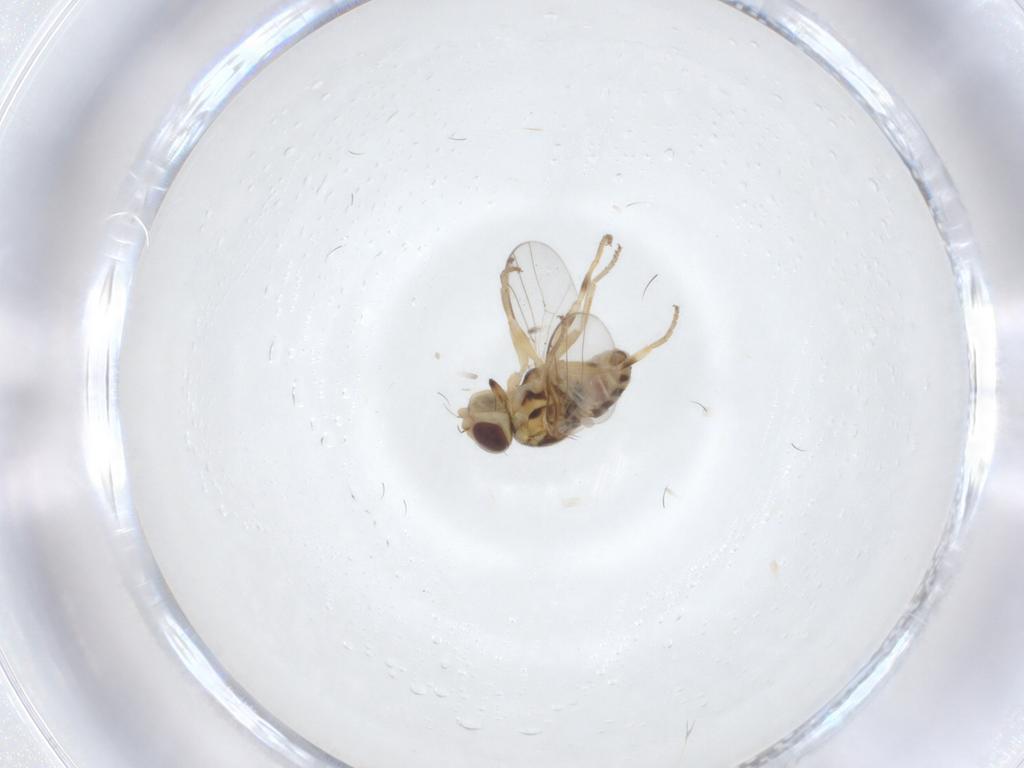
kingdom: Animalia
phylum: Arthropoda
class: Insecta
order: Diptera
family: Chloropidae
